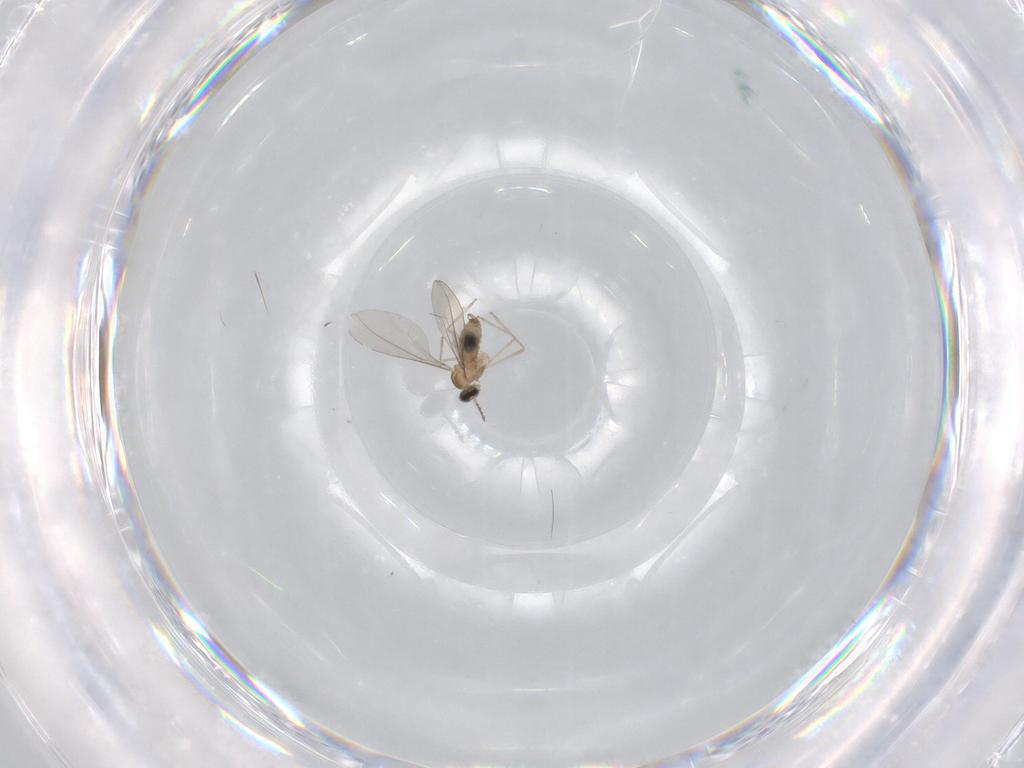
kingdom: Animalia
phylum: Arthropoda
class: Insecta
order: Diptera
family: Cecidomyiidae
